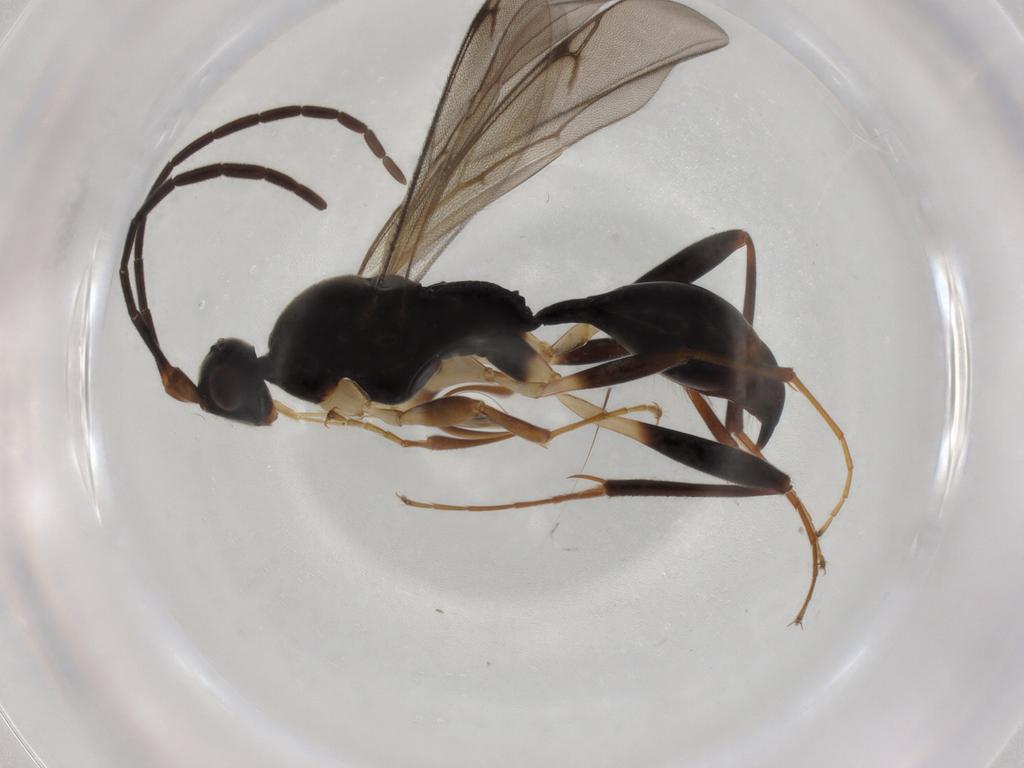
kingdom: Animalia
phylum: Arthropoda
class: Insecta
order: Hymenoptera
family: Proctotrupidae
